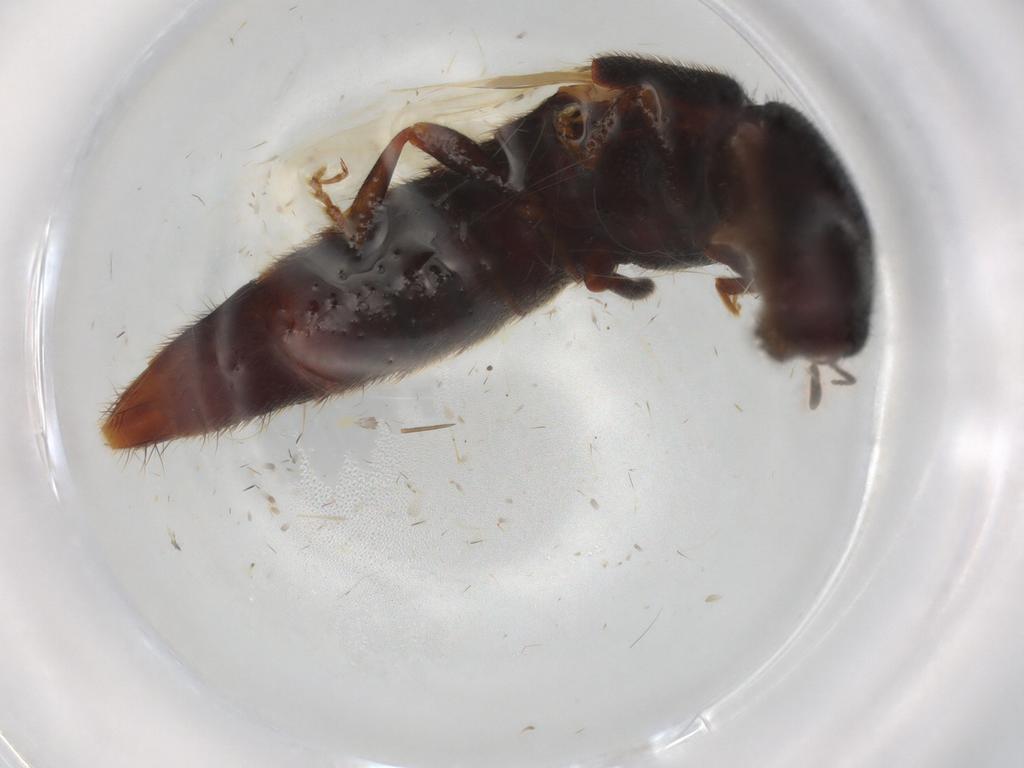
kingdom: Animalia
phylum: Arthropoda
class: Insecta
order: Coleoptera
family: Staphylinidae
